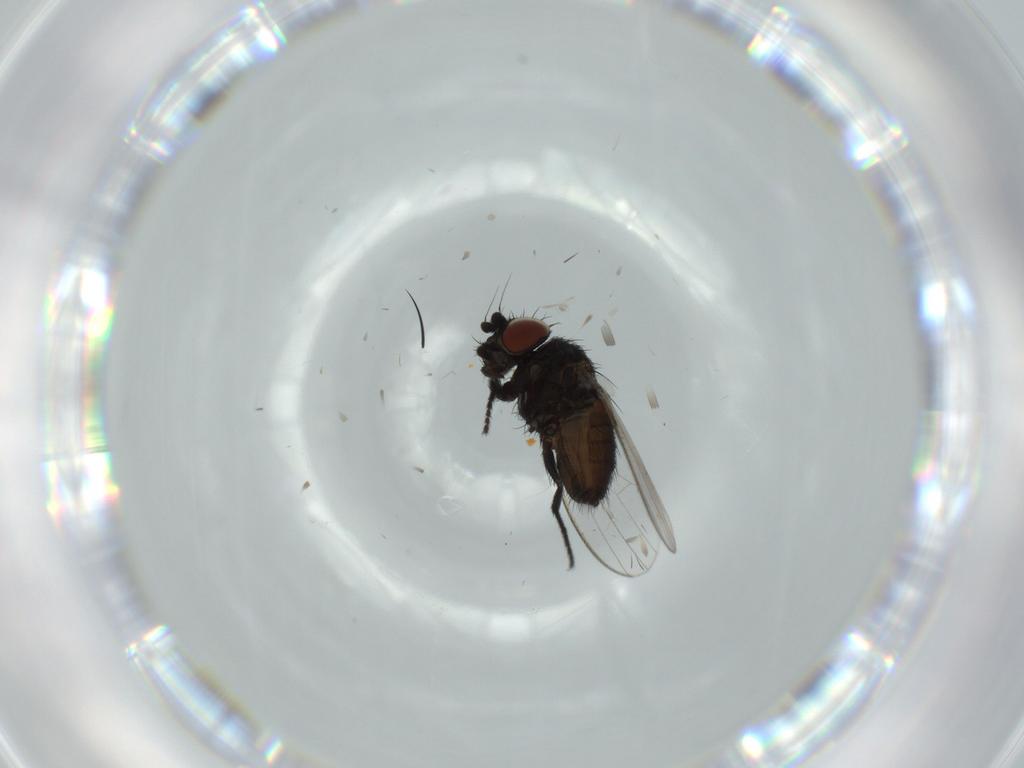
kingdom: Animalia
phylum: Arthropoda
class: Insecta
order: Diptera
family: Milichiidae
